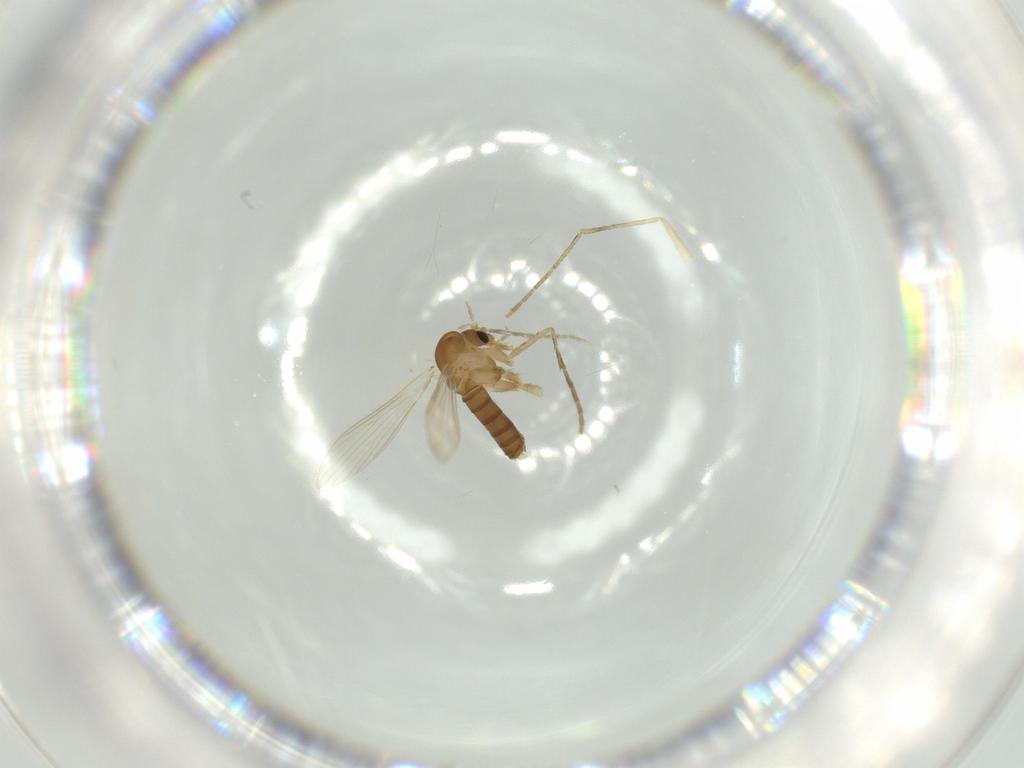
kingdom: Animalia
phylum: Arthropoda
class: Insecta
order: Diptera
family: Psychodidae
